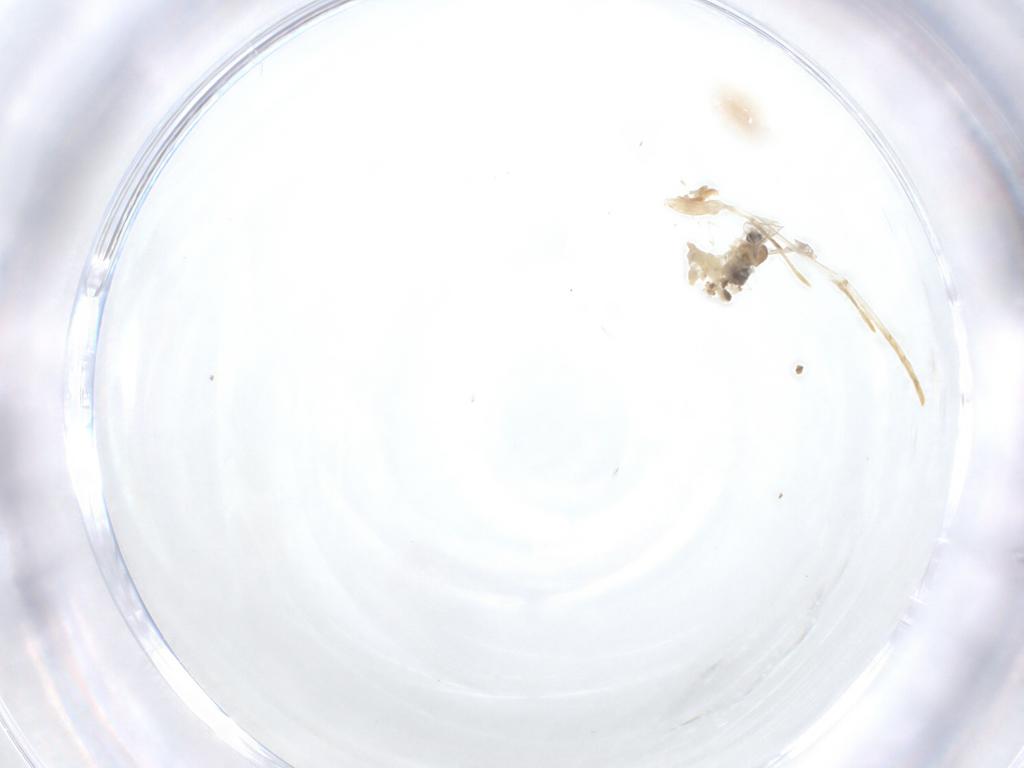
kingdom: Animalia
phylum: Arthropoda
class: Insecta
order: Diptera
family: Cecidomyiidae
